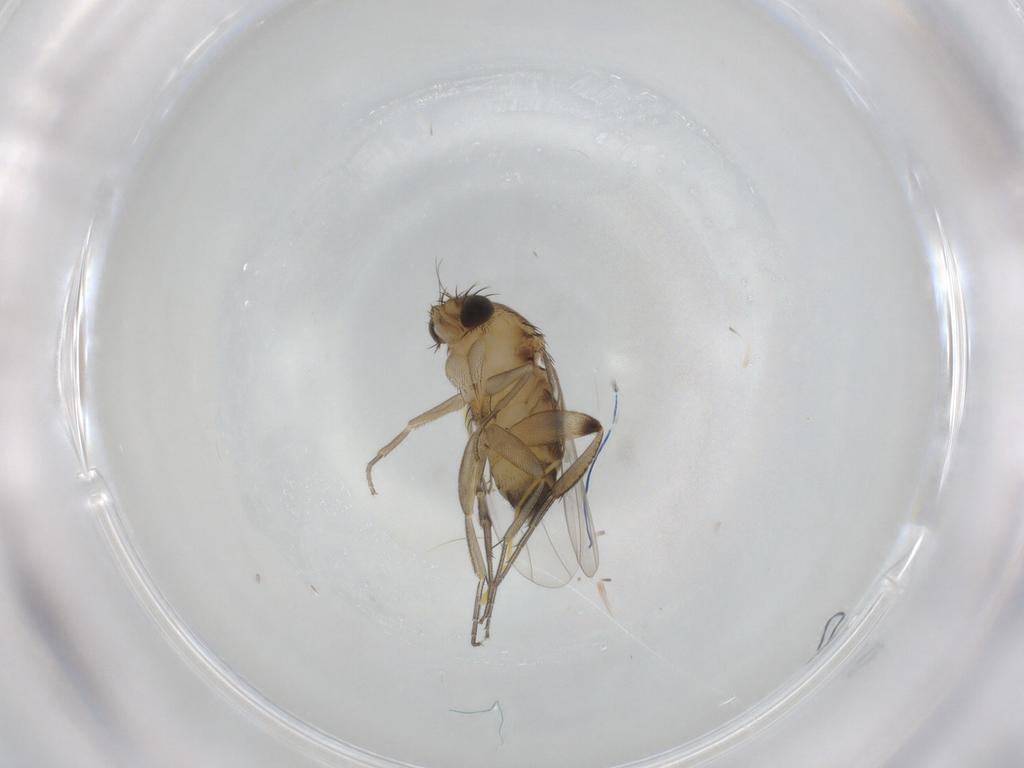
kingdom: Animalia
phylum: Arthropoda
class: Insecta
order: Diptera
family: Phoridae
